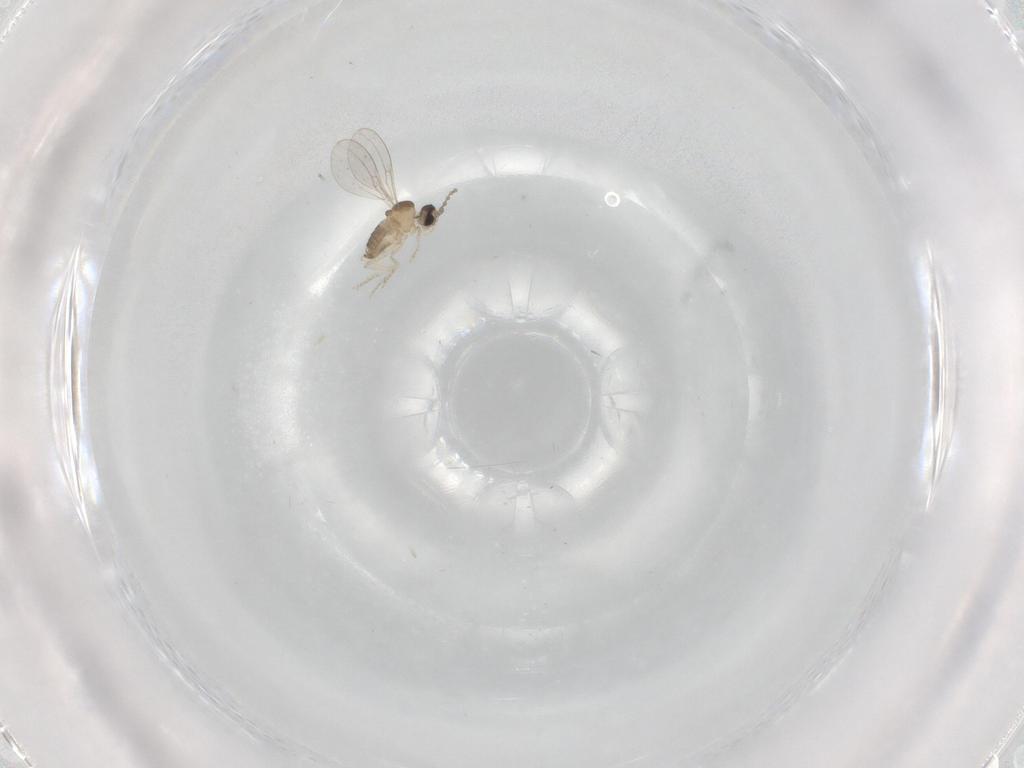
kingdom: Animalia
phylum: Arthropoda
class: Insecta
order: Diptera
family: Cecidomyiidae
